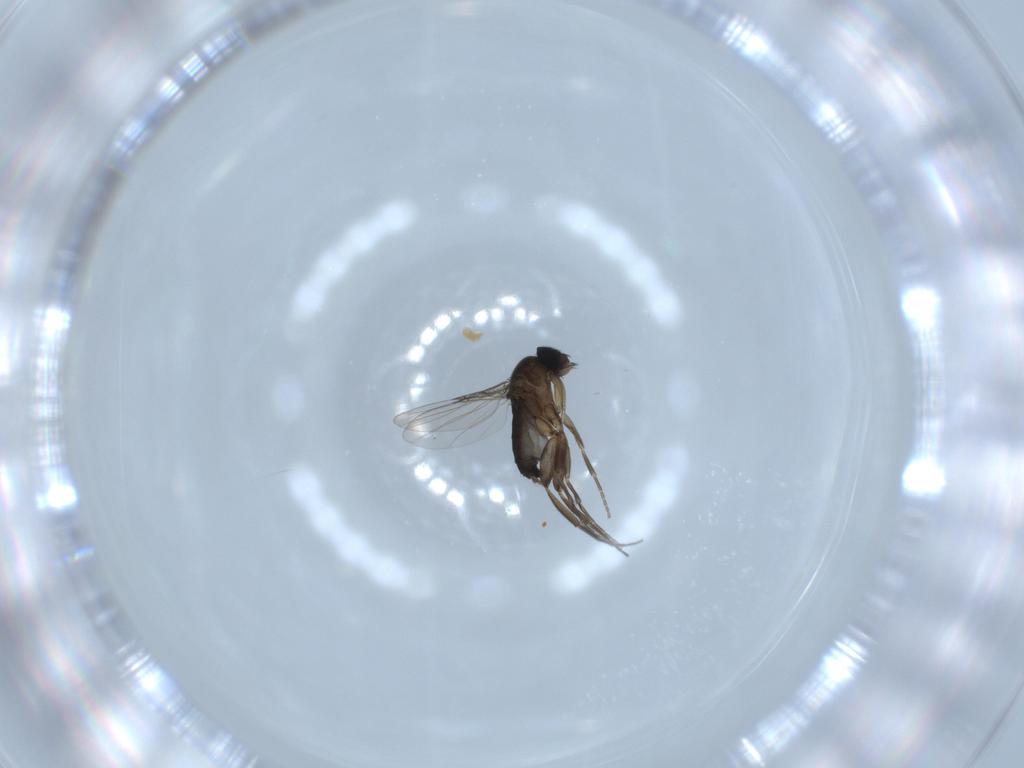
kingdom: Animalia
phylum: Arthropoda
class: Insecta
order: Diptera
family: Phoridae
